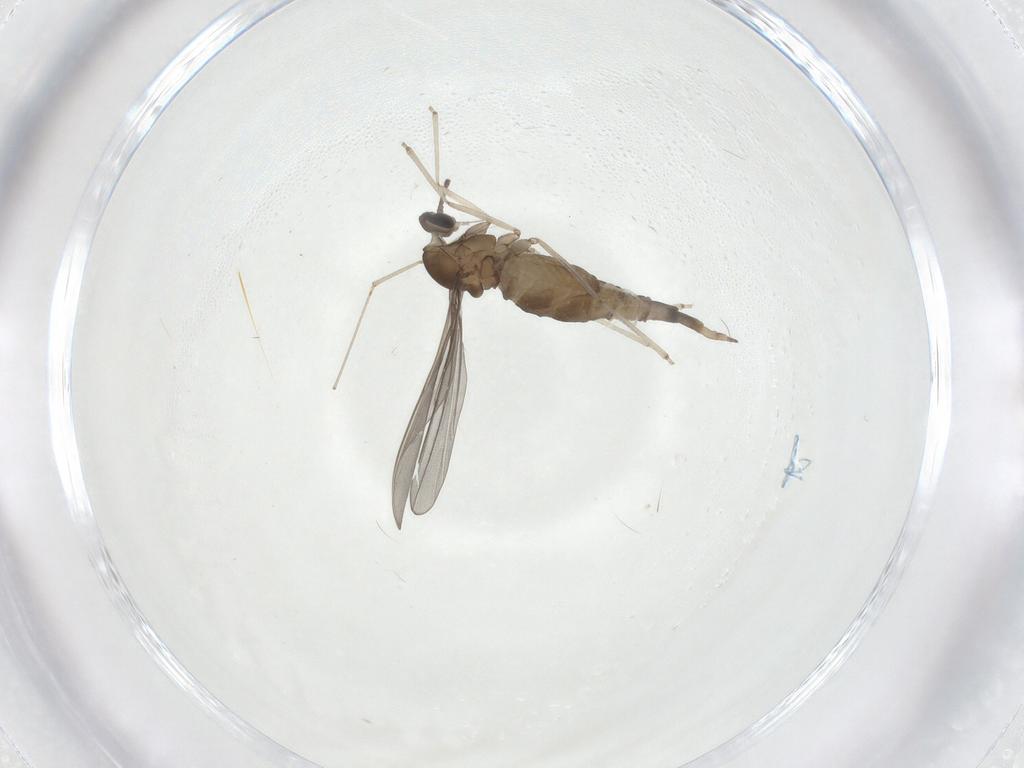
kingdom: Animalia
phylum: Arthropoda
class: Insecta
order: Diptera
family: Cecidomyiidae
